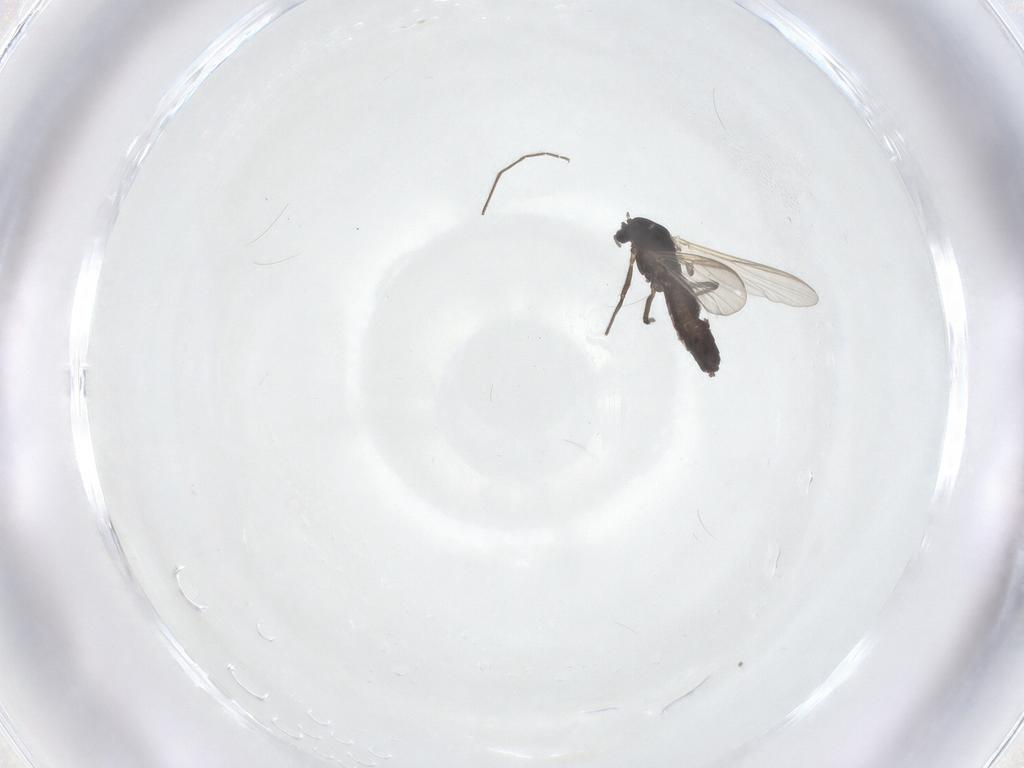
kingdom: Animalia
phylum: Arthropoda
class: Insecta
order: Diptera
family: Chironomidae
